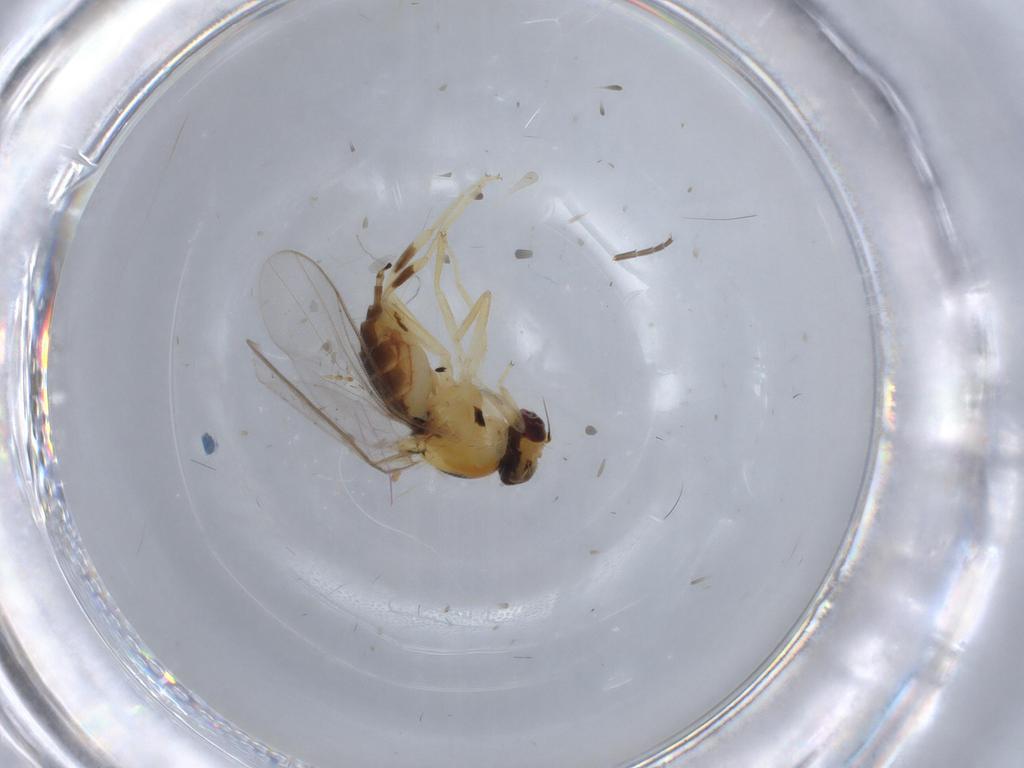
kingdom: Animalia
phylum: Arthropoda
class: Insecta
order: Diptera
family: Chloropidae
